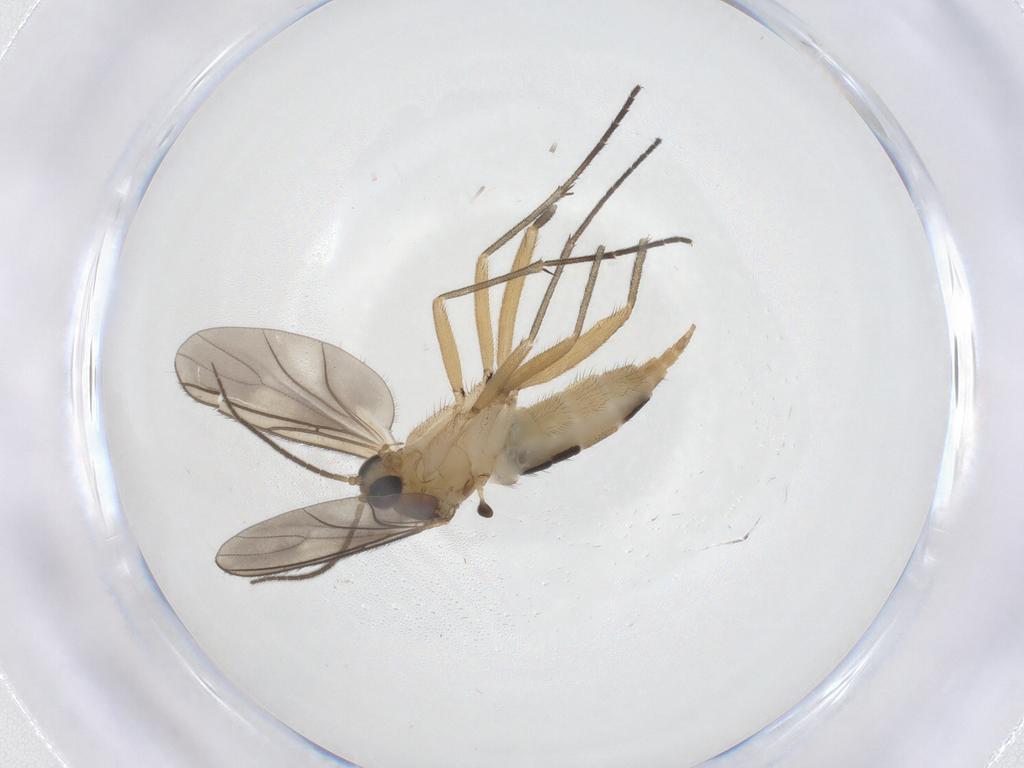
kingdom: Animalia
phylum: Arthropoda
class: Insecta
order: Diptera
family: Sciaridae
